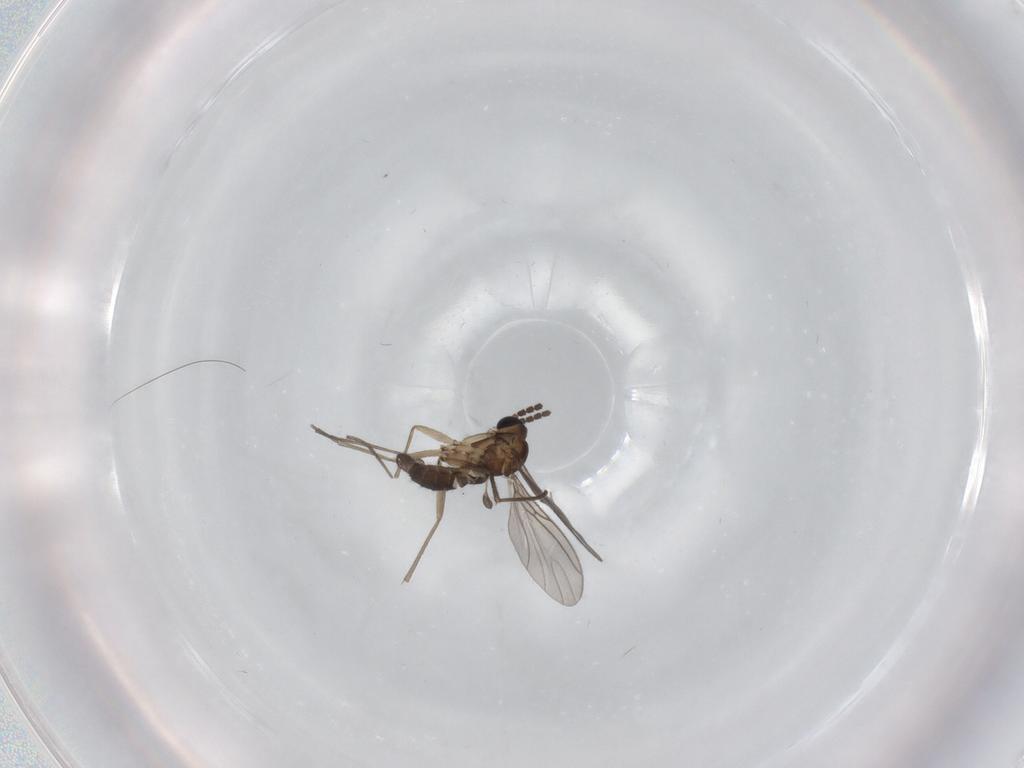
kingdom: Animalia
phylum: Arthropoda
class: Insecta
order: Diptera
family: Sciaridae
